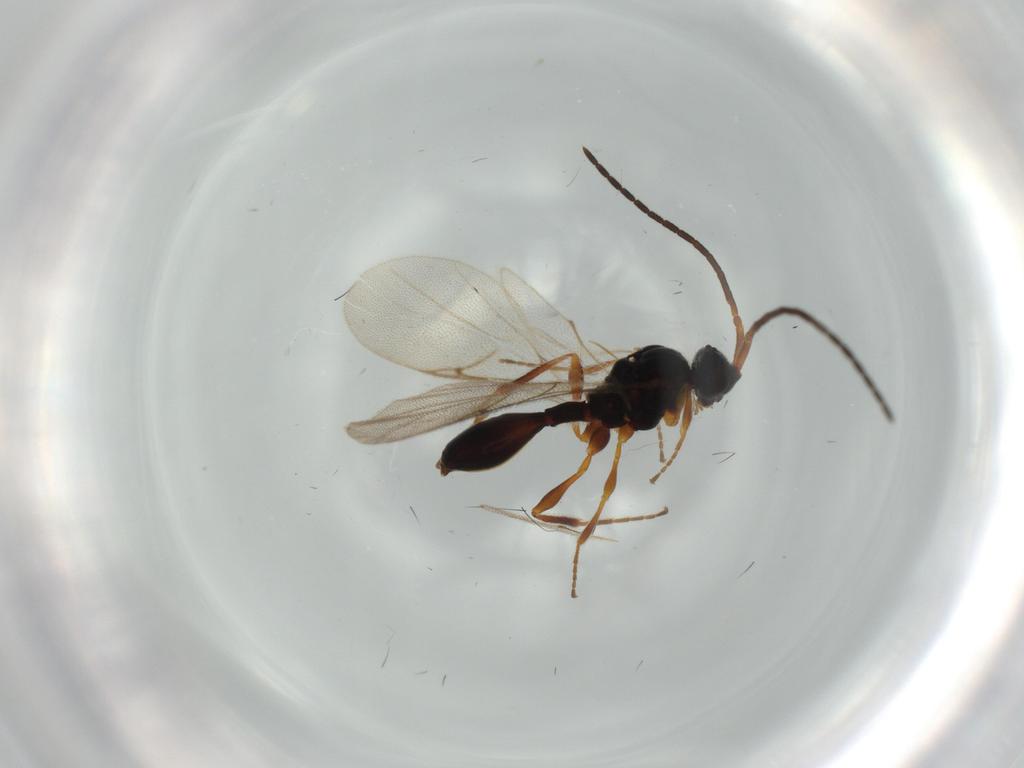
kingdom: Animalia
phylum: Arthropoda
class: Insecta
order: Hymenoptera
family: Diapriidae
